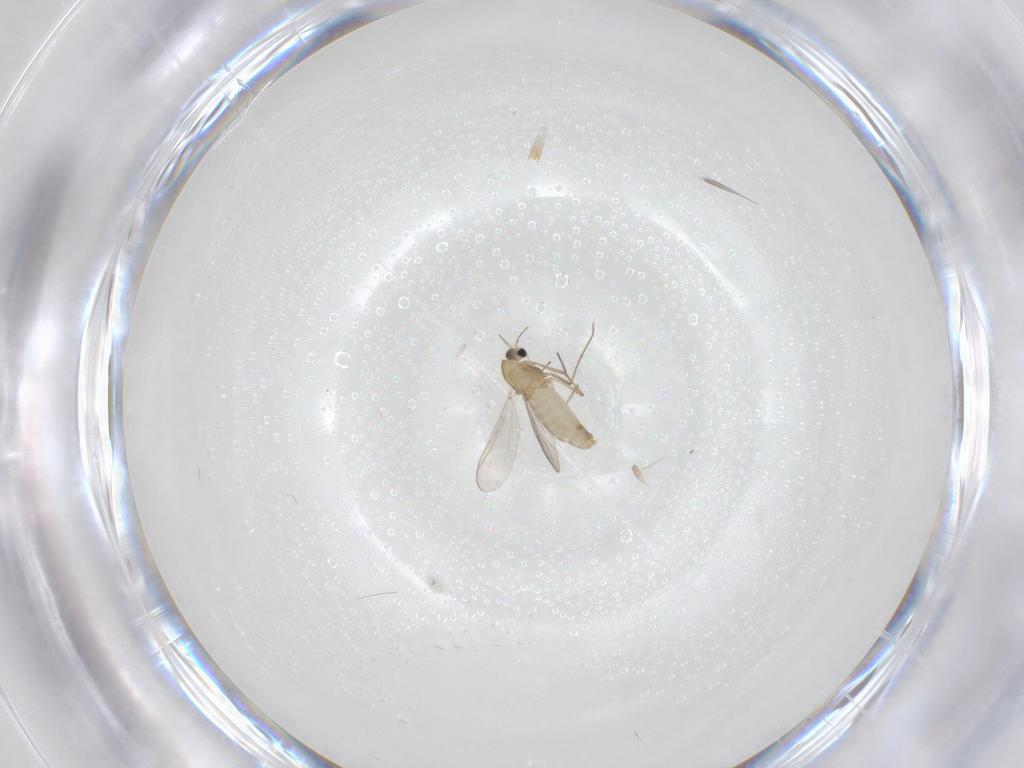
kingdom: Animalia
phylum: Arthropoda
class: Insecta
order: Diptera
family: Chironomidae
